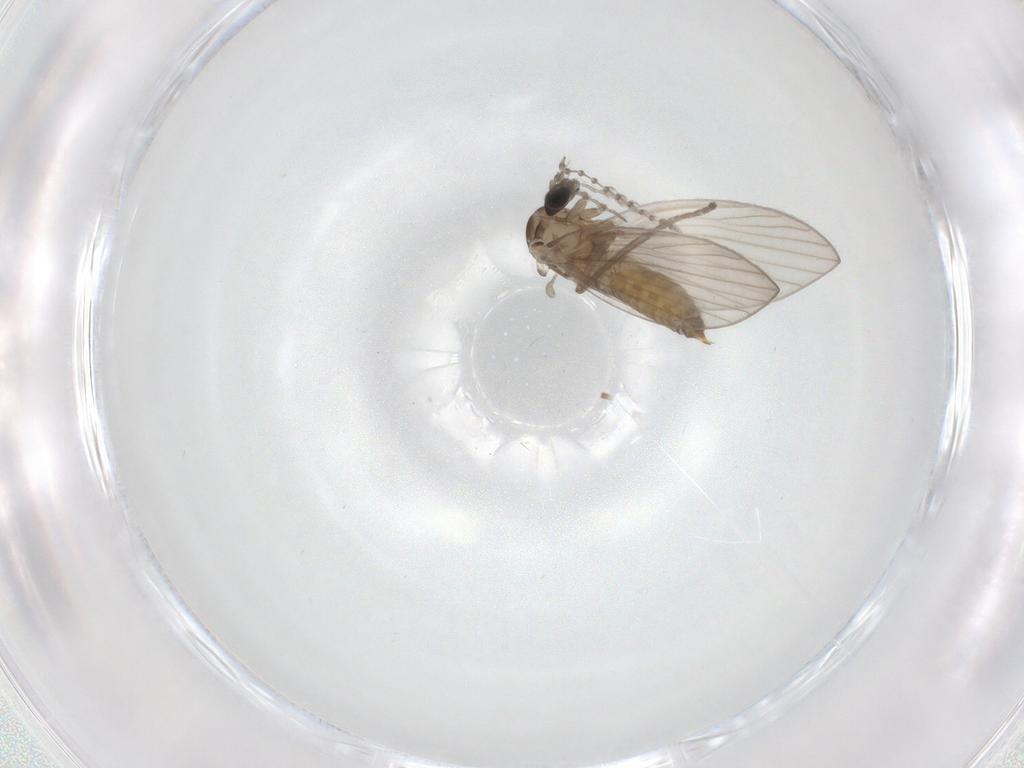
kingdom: Animalia
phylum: Arthropoda
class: Insecta
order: Diptera
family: Psychodidae
